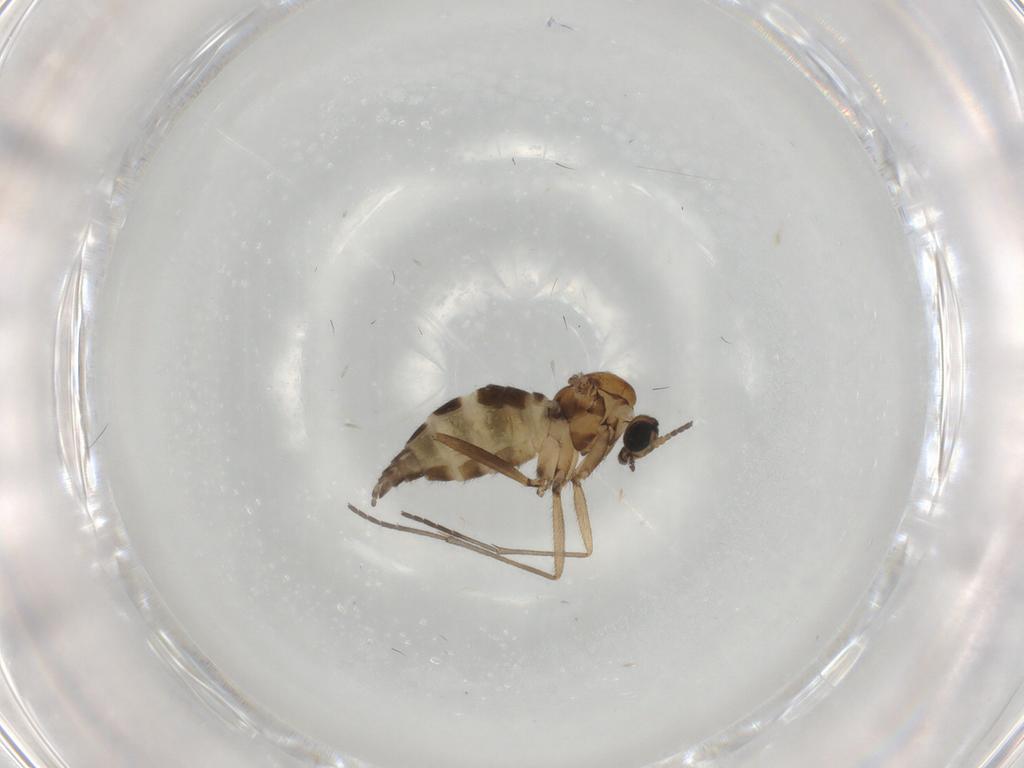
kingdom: Animalia
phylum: Arthropoda
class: Insecta
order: Diptera
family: Sciaridae
